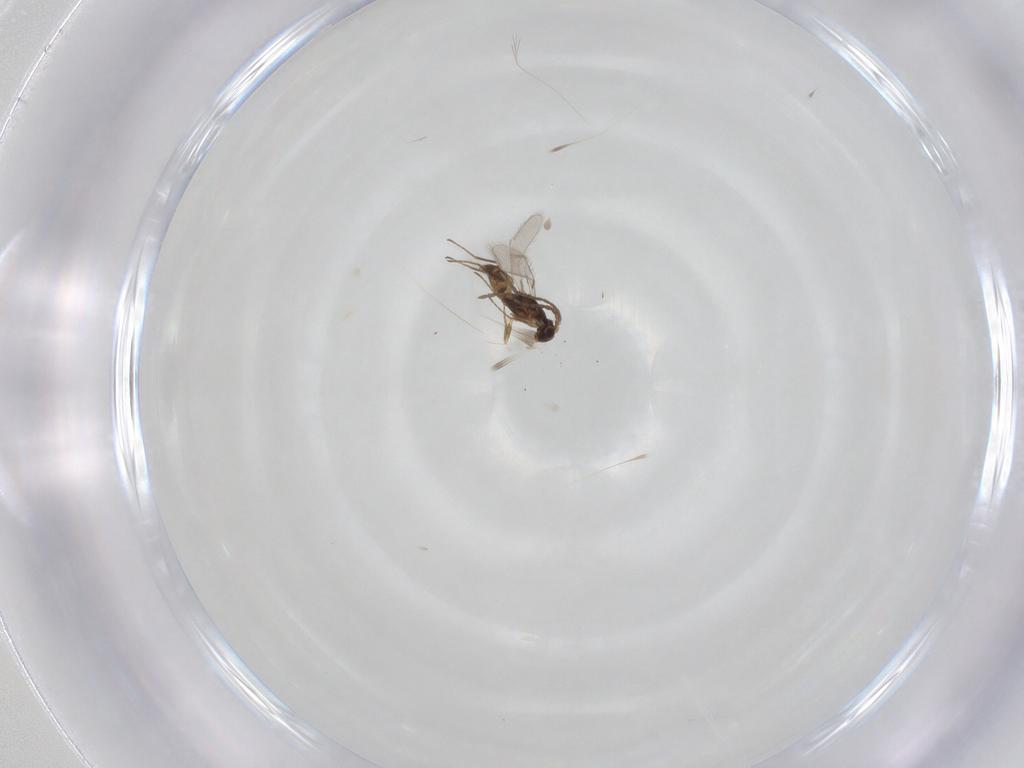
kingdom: Animalia
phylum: Arthropoda
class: Insecta
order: Hymenoptera
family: Mymaridae
